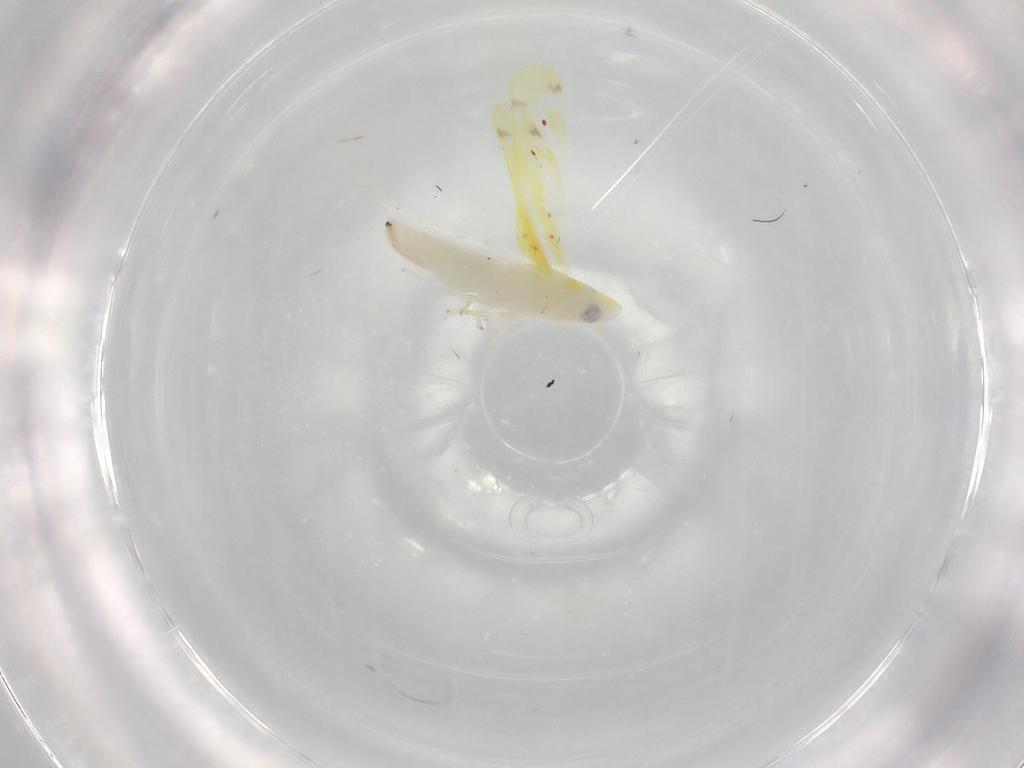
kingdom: Animalia
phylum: Arthropoda
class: Insecta
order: Hemiptera
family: Cicadellidae
